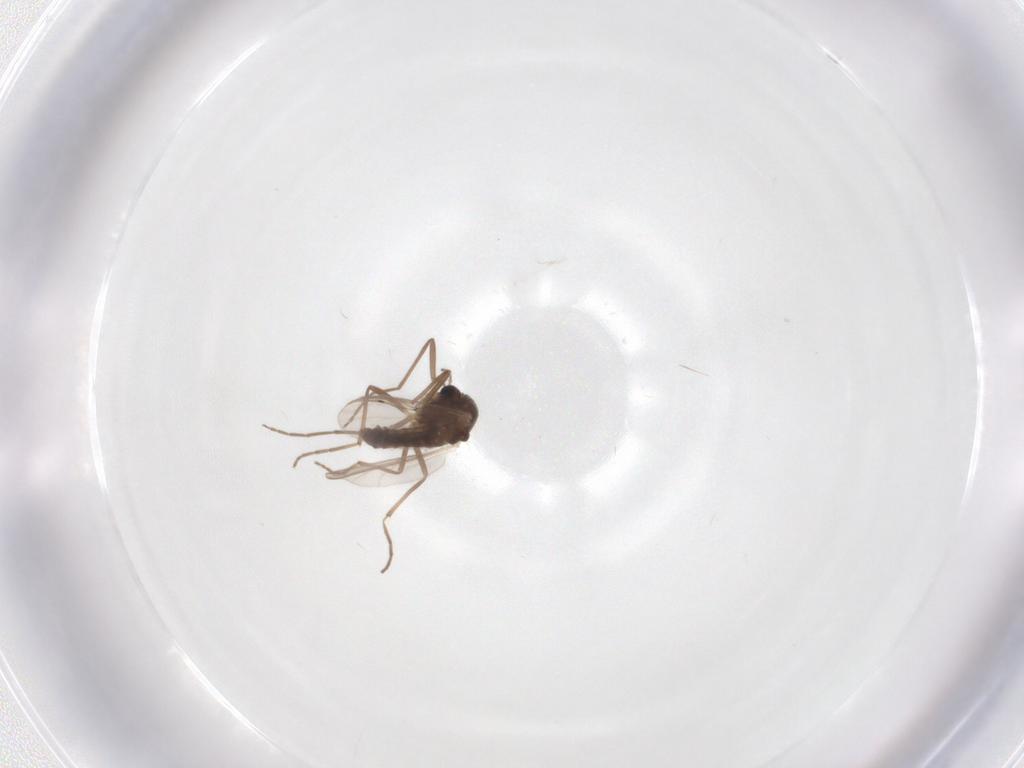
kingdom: Animalia
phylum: Arthropoda
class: Insecta
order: Diptera
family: Chironomidae
